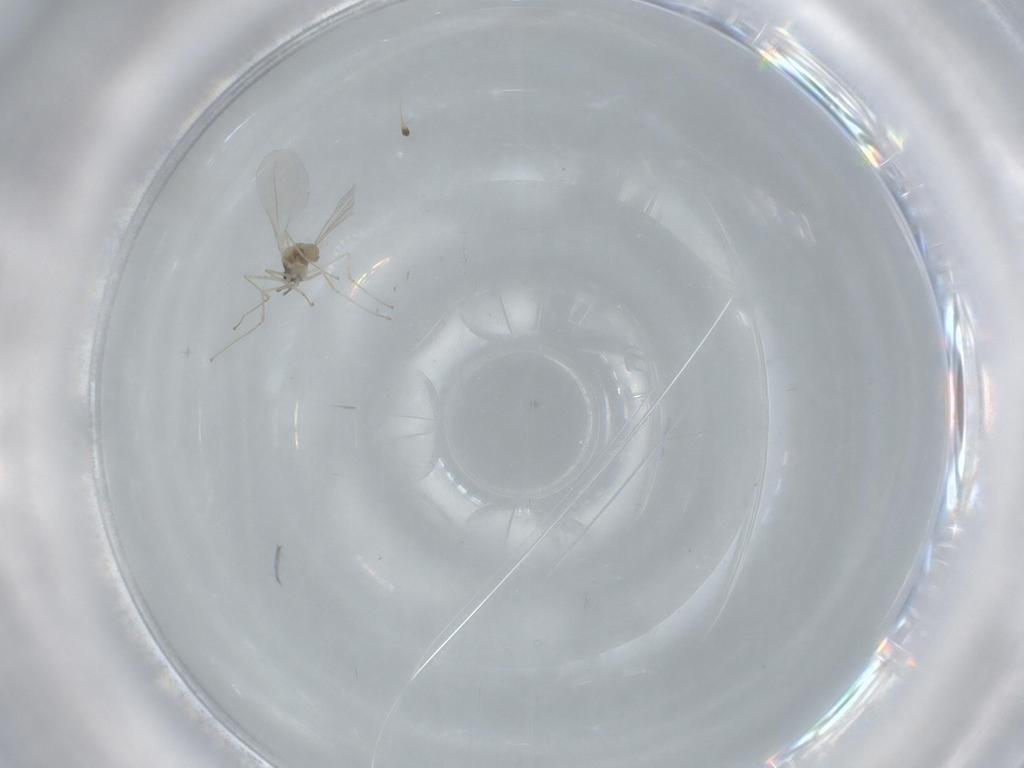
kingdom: Animalia
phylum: Arthropoda
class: Insecta
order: Diptera
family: Cecidomyiidae
